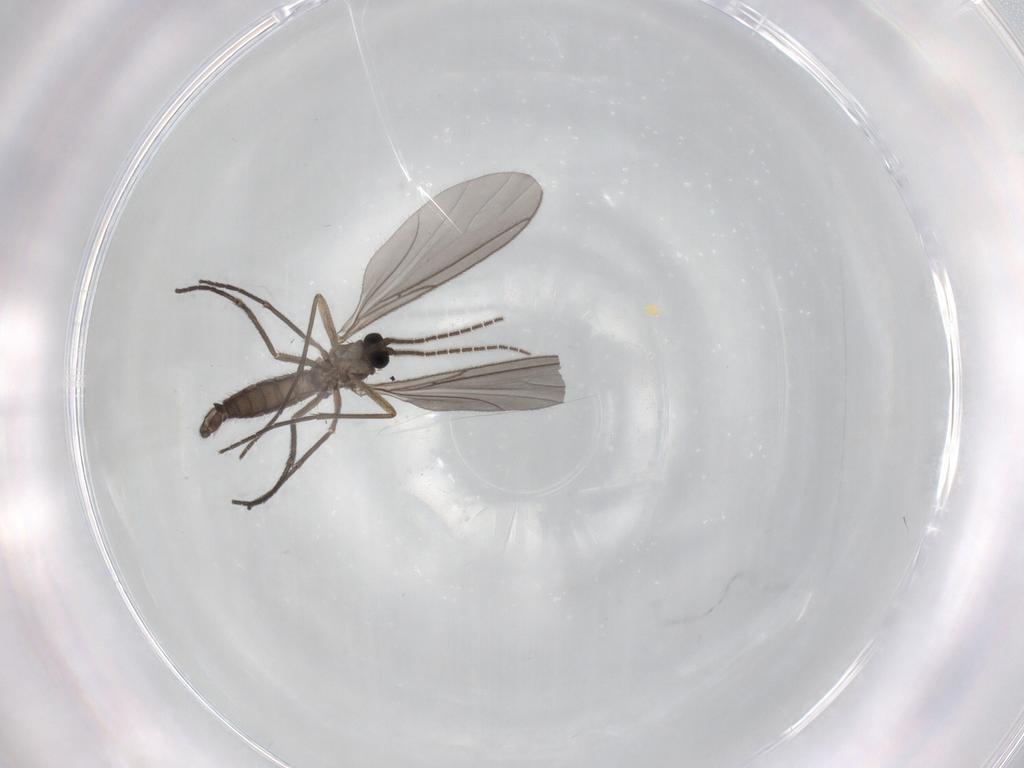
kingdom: Animalia
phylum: Arthropoda
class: Insecta
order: Diptera
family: Sciaridae
